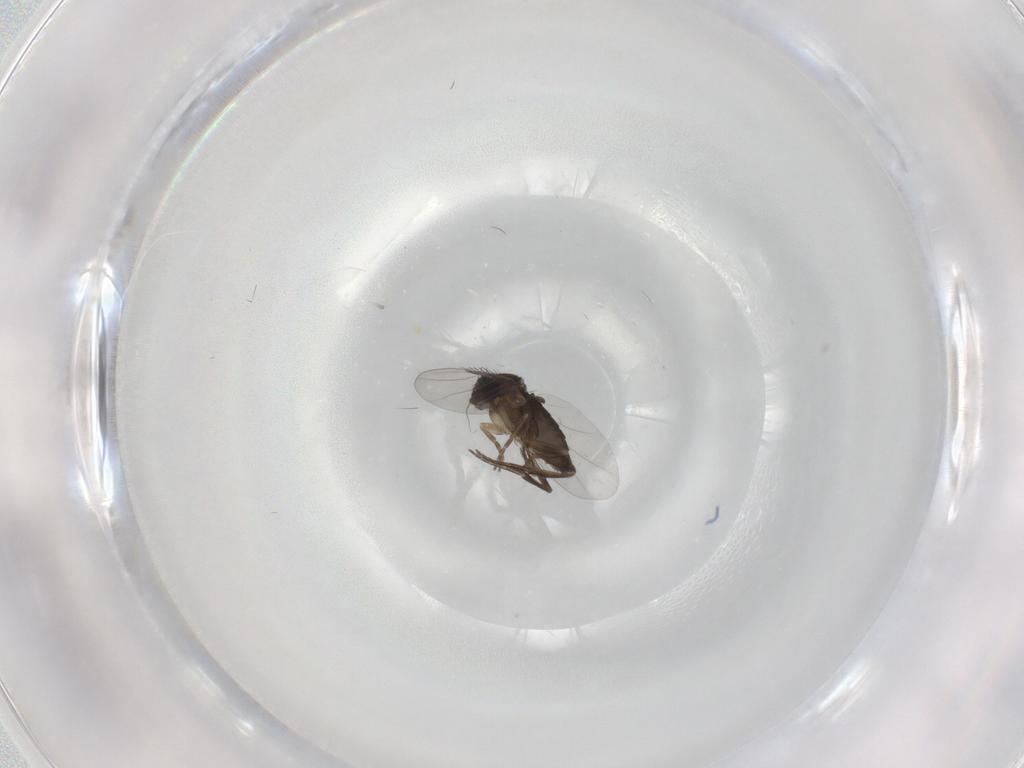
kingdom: Animalia
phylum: Arthropoda
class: Insecta
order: Diptera
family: Phoridae
